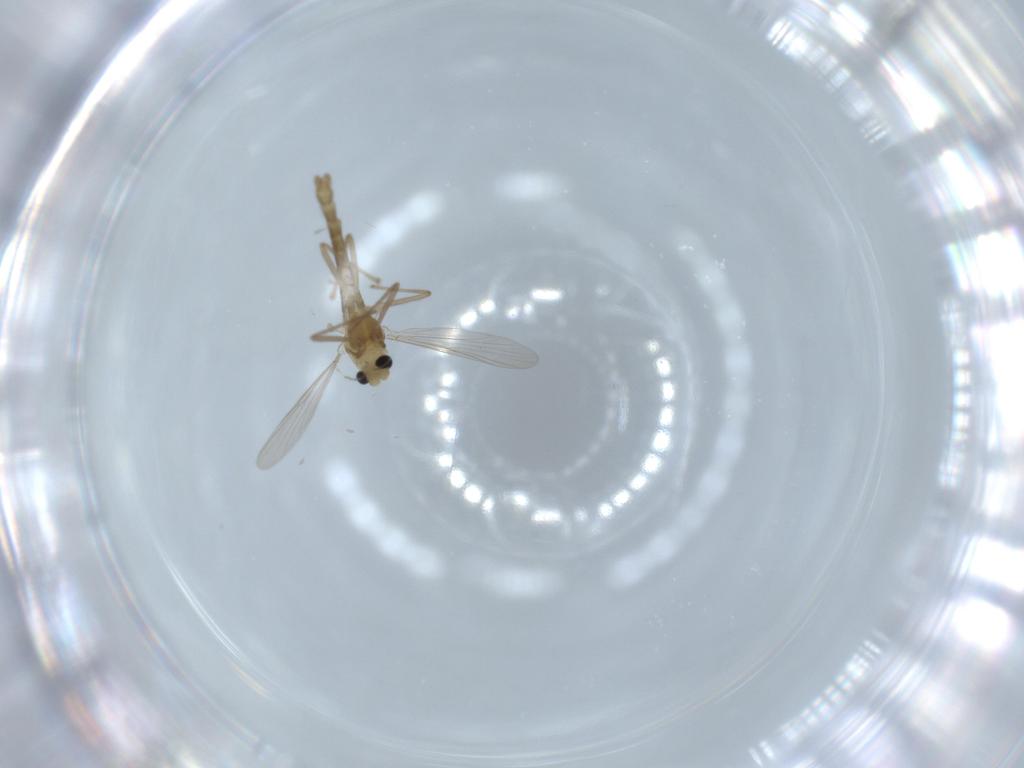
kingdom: Animalia
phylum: Arthropoda
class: Insecta
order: Diptera
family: Chironomidae
